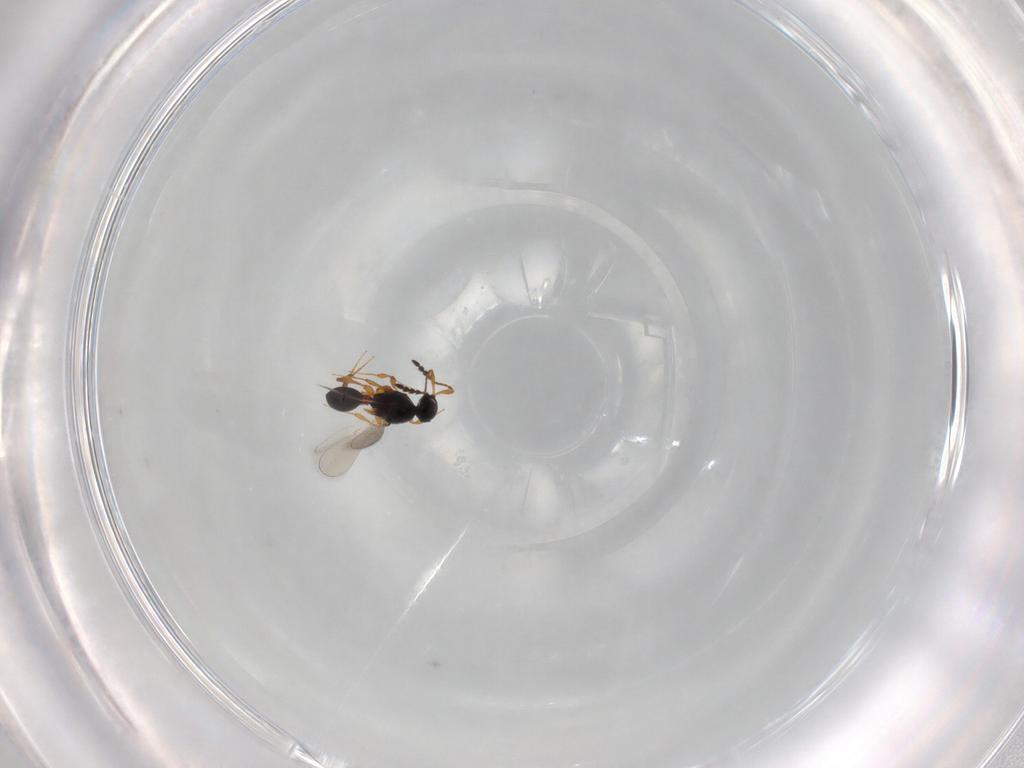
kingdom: Animalia
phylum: Arthropoda
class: Insecta
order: Hymenoptera
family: Platygastridae
